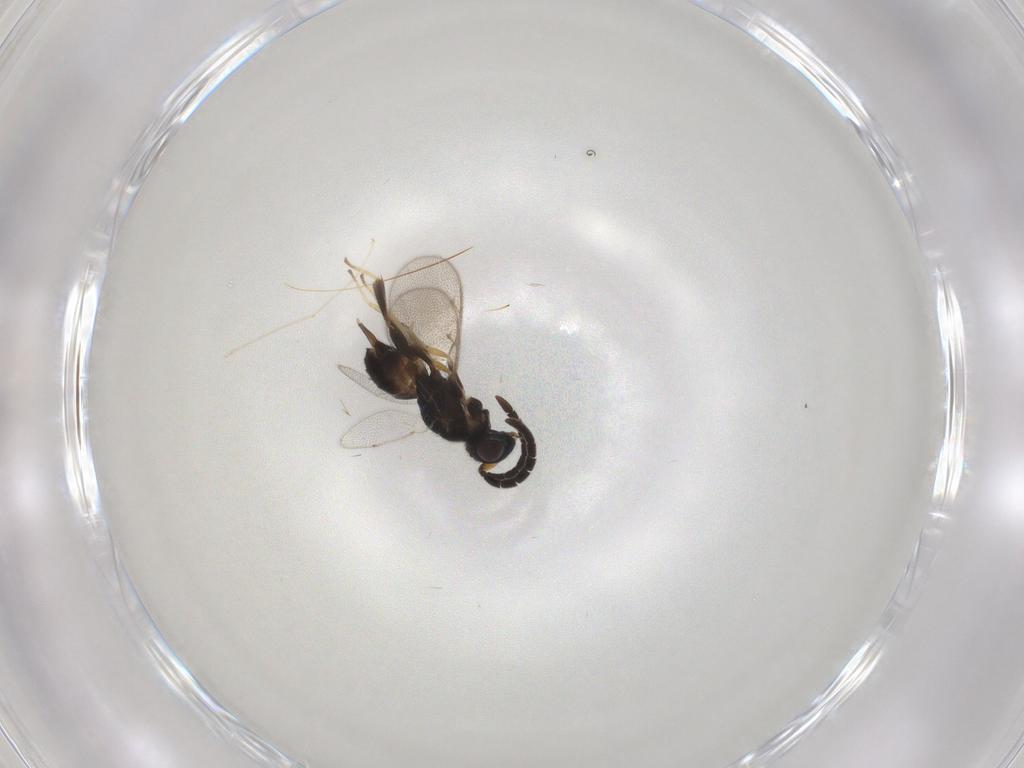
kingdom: Animalia
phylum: Arthropoda
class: Insecta
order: Hymenoptera
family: Eupelmidae
